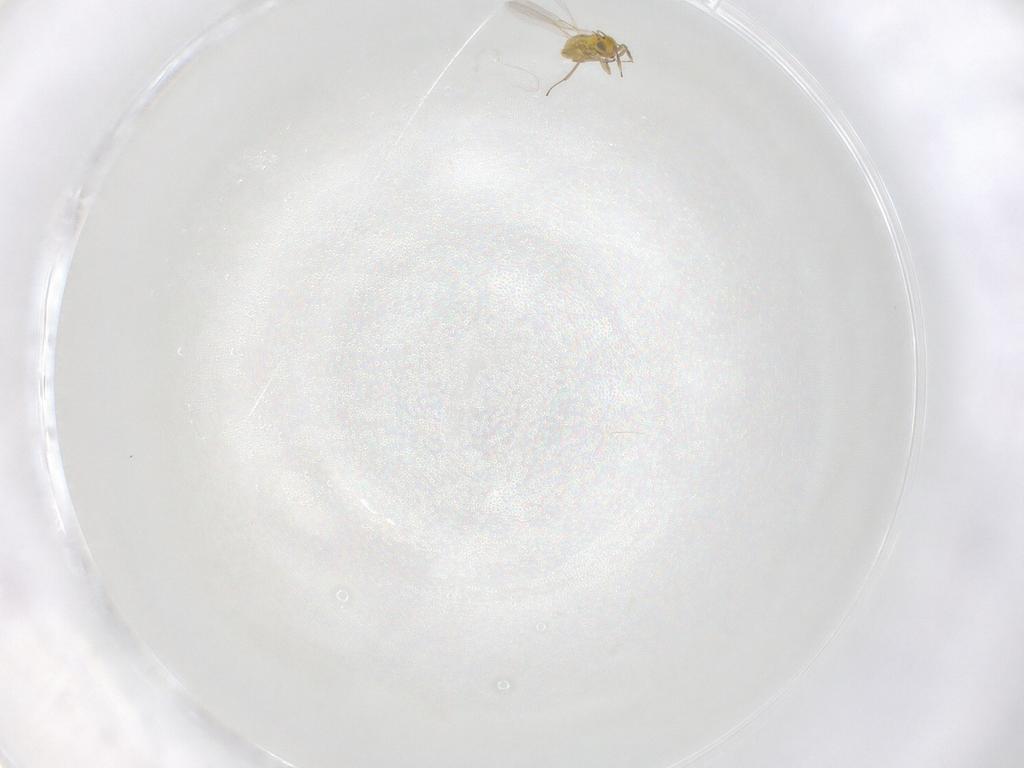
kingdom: Animalia
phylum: Arthropoda
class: Insecta
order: Hymenoptera
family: Aphelinidae
